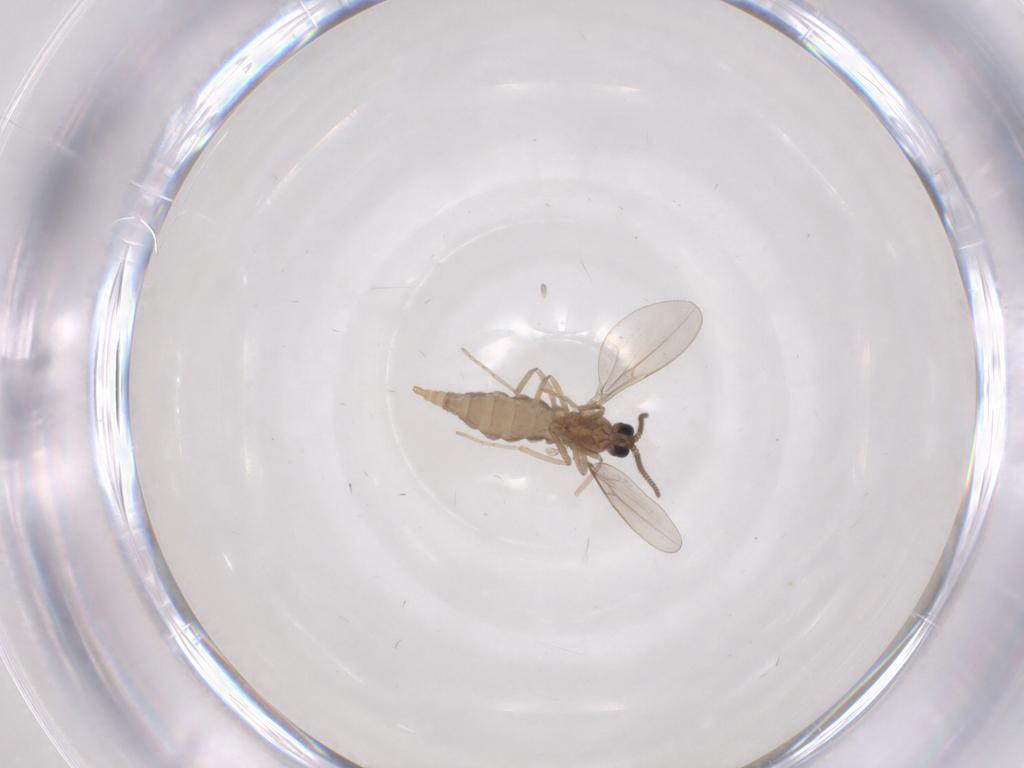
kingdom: Animalia
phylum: Arthropoda
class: Insecta
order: Diptera
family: Cecidomyiidae
